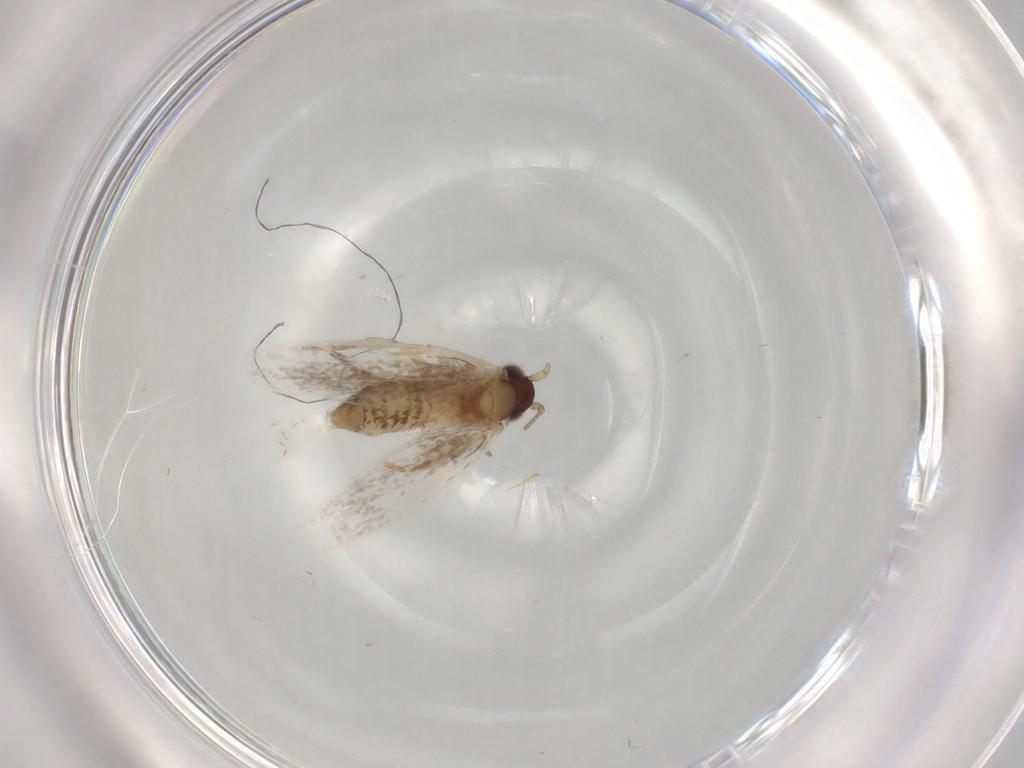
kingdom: Animalia
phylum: Arthropoda
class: Insecta
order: Lepidoptera
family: Tineidae
